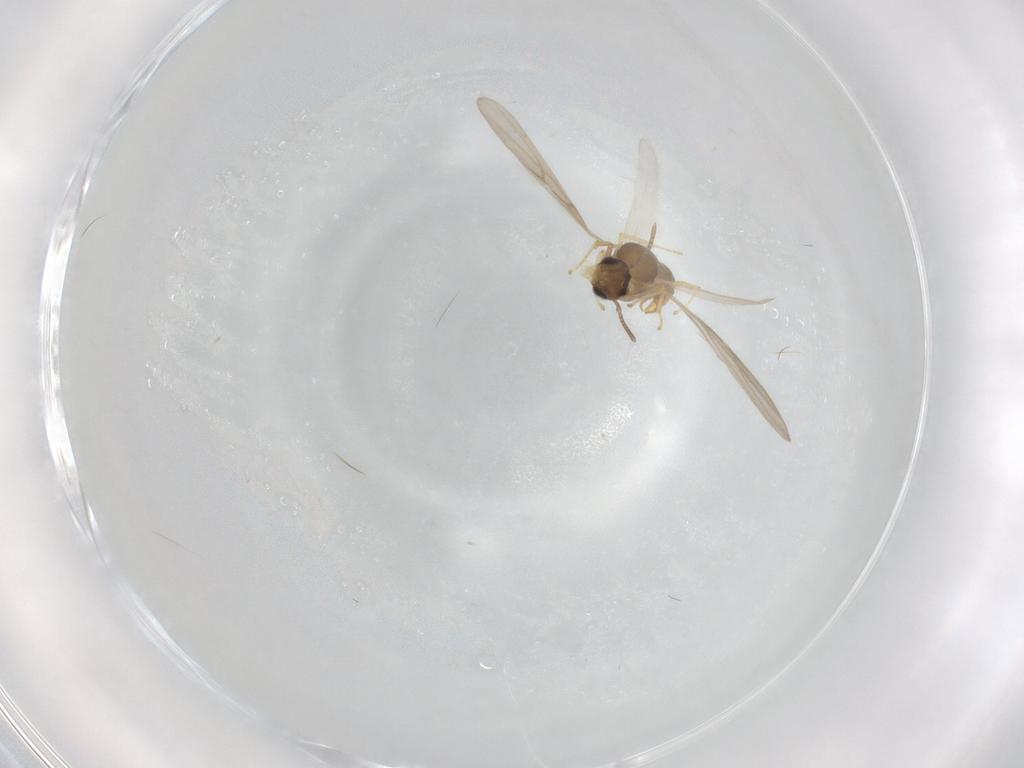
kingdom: Animalia
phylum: Arthropoda
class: Insecta
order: Hymenoptera
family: Formicidae
